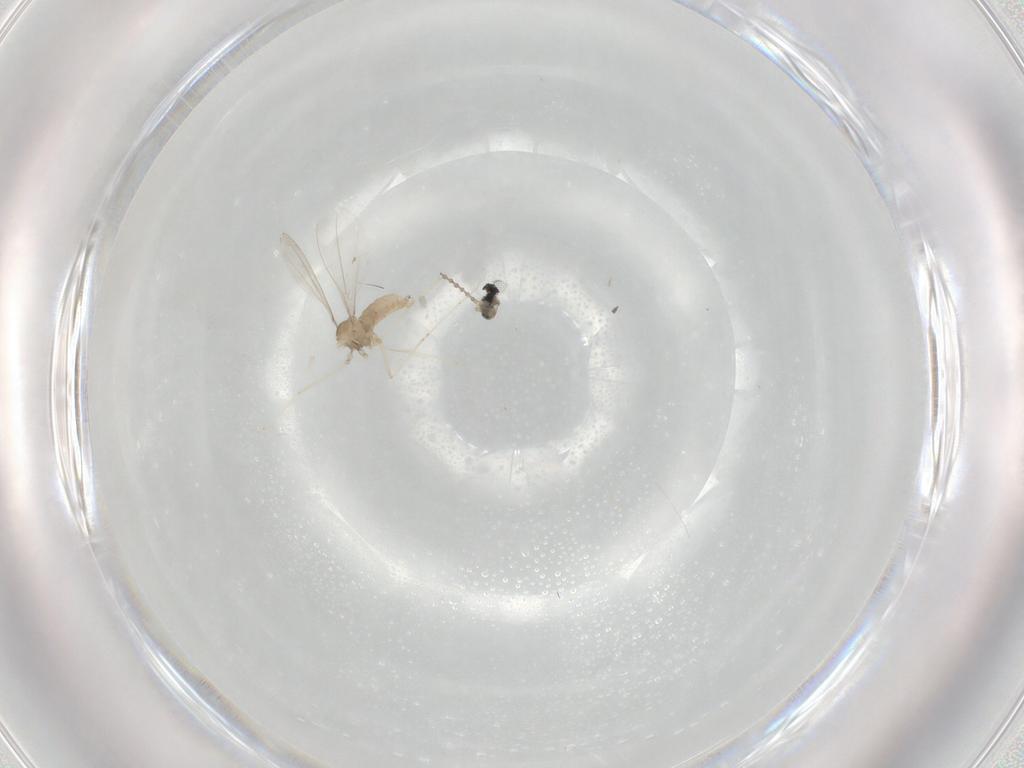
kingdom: Animalia
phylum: Arthropoda
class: Insecta
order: Diptera
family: Cecidomyiidae
